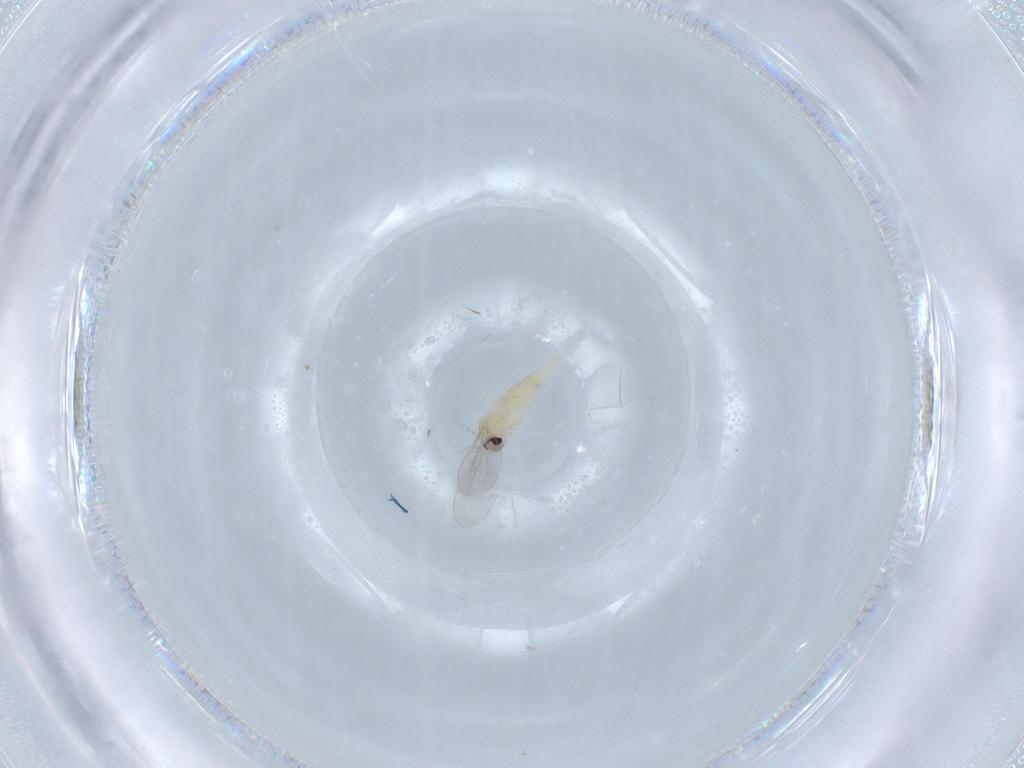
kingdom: Animalia
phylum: Arthropoda
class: Insecta
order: Diptera
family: Cecidomyiidae
